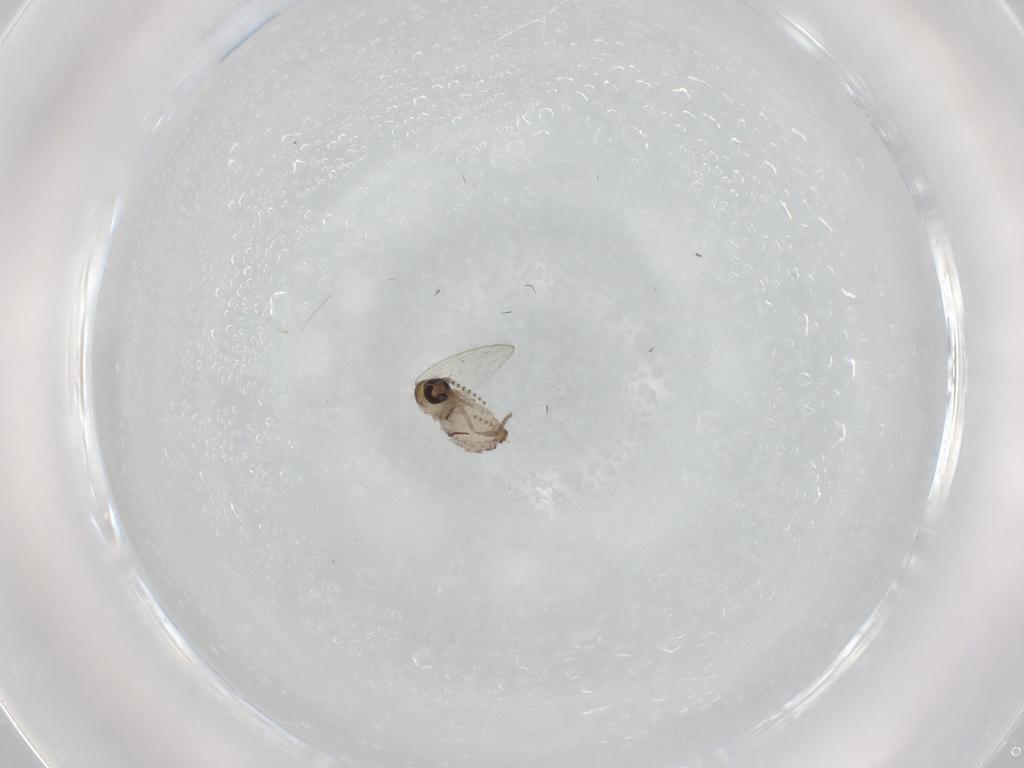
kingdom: Animalia
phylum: Arthropoda
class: Insecta
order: Diptera
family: Psychodidae
